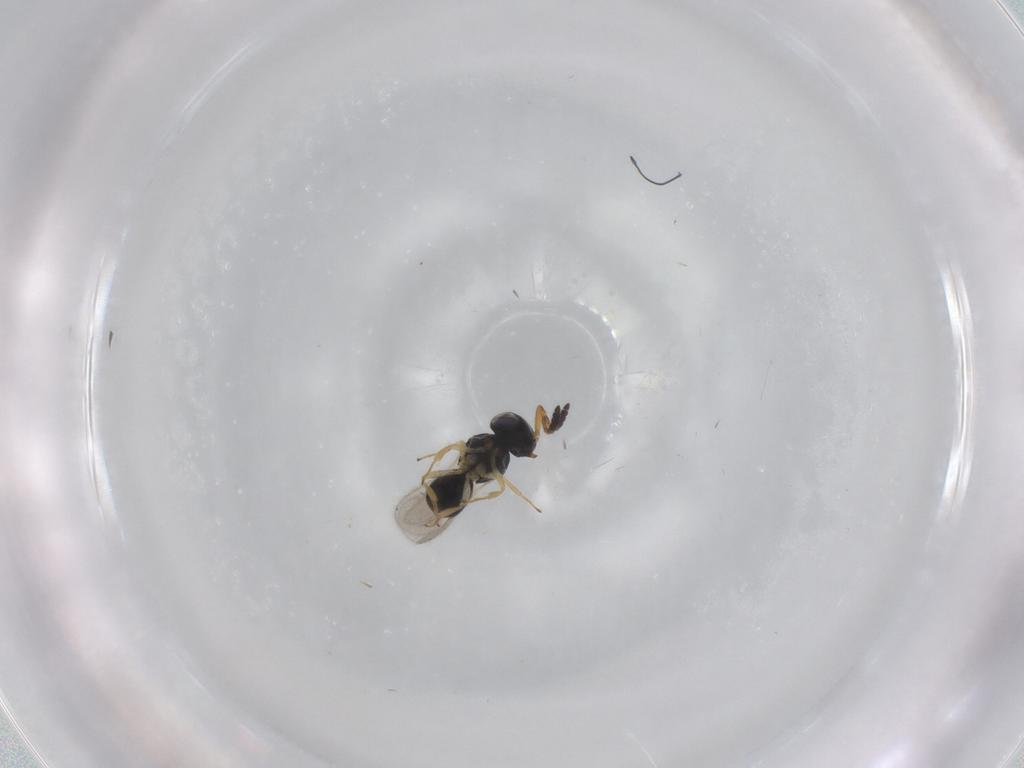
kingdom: Animalia
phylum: Arthropoda
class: Insecta
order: Hymenoptera
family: Scelionidae
